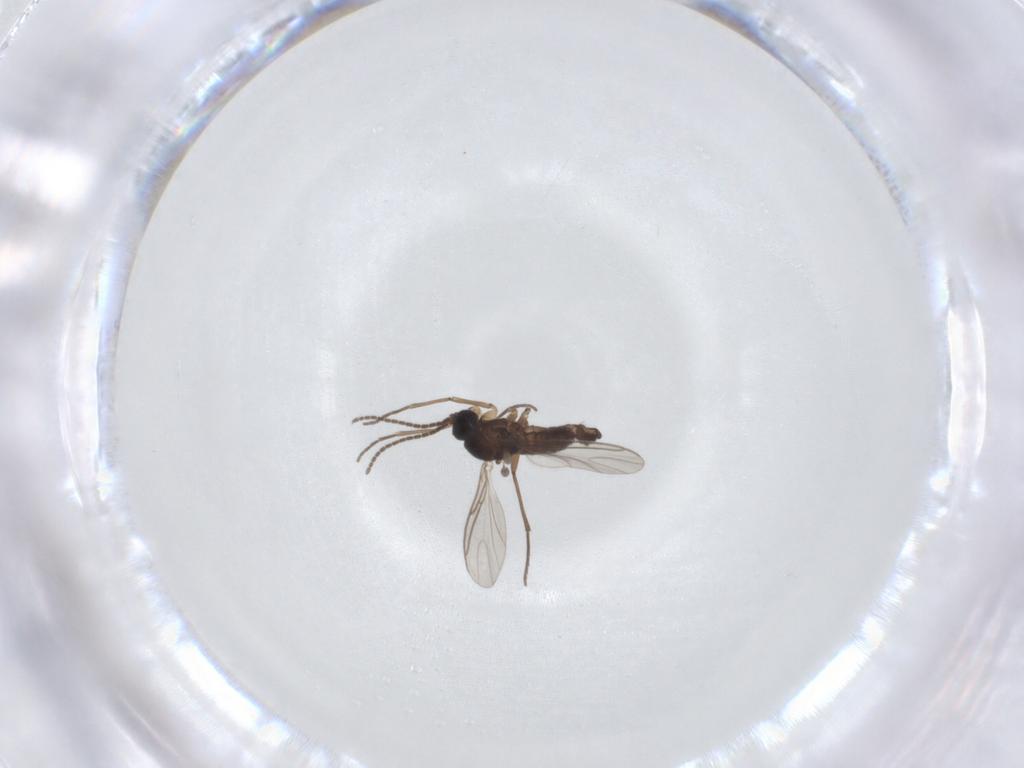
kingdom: Animalia
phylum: Arthropoda
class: Insecta
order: Diptera
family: Sciaridae
